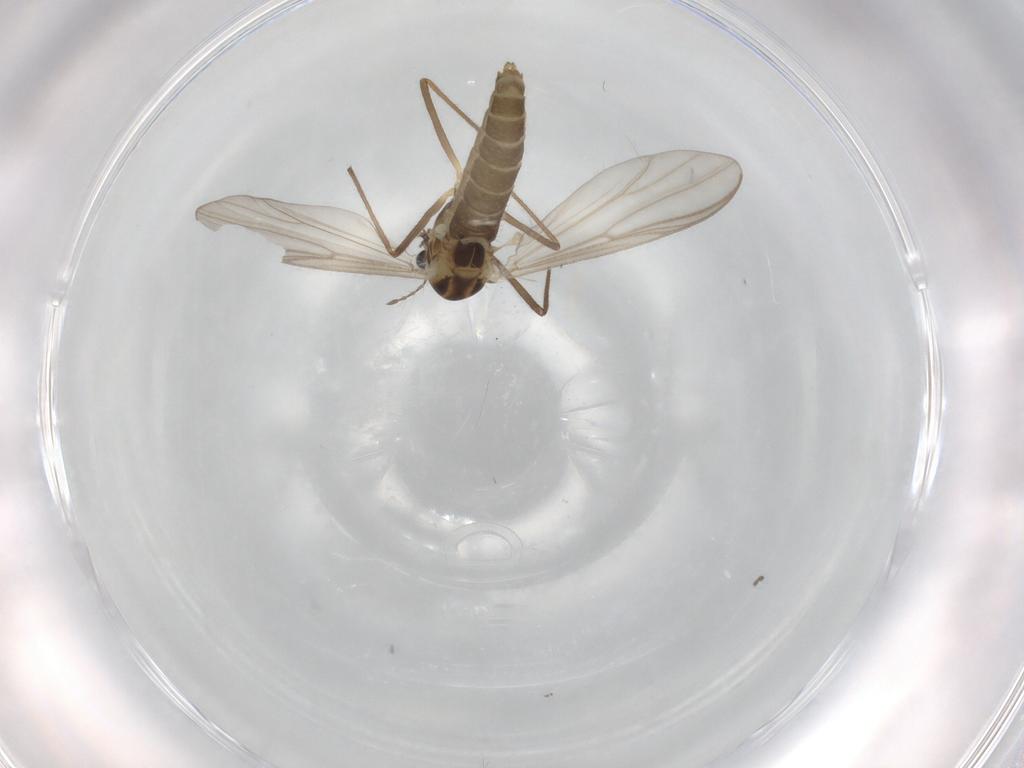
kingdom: Animalia
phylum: Arthropoda
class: Insecta
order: Diptera
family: Chironomidae
